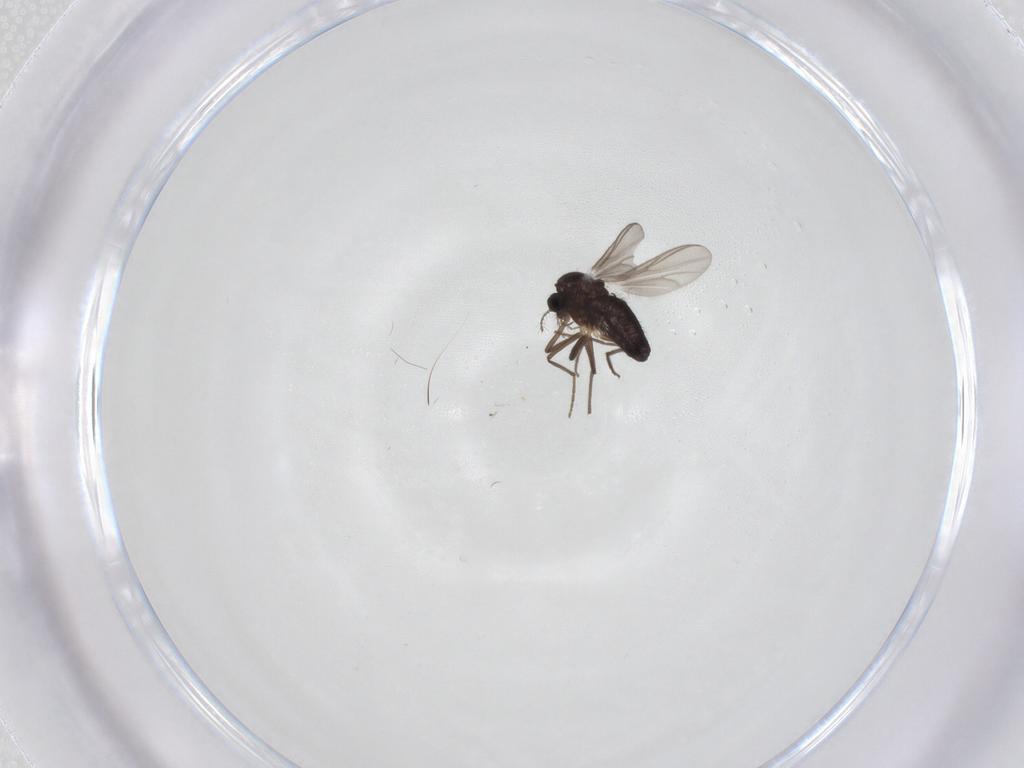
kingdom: Animalia
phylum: Arthropoda
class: Insecta
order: Diptera
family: Chironomidae
